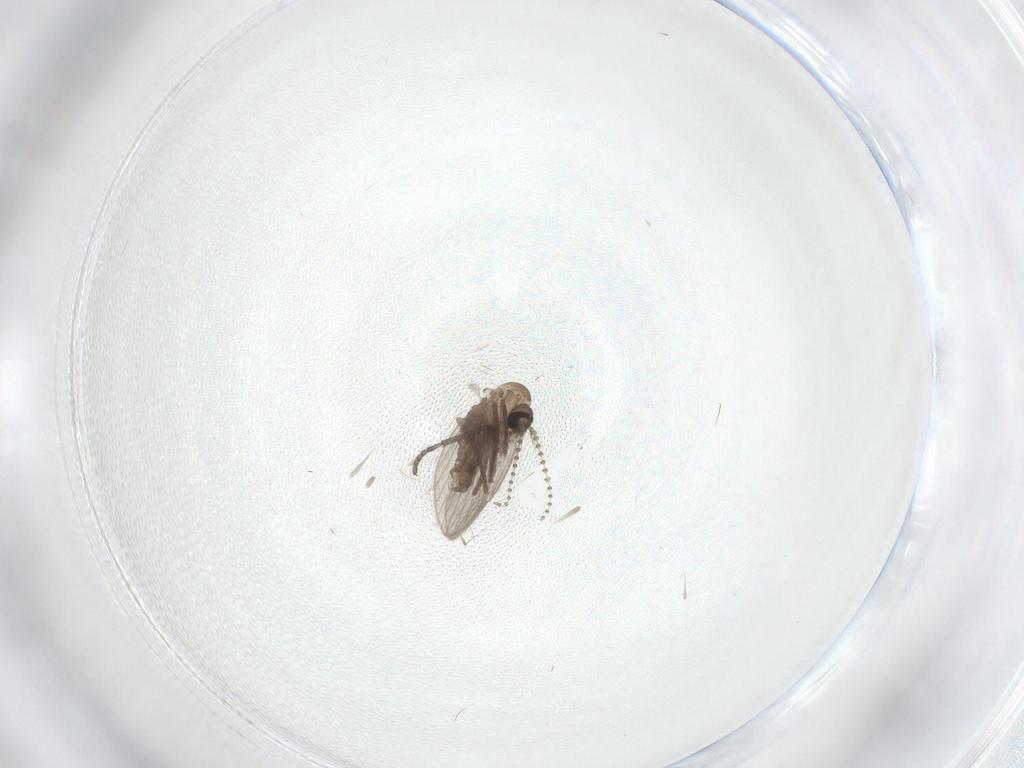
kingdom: Animalia
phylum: Arthropoda
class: Insecta
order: Diptera
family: Psychodidae
